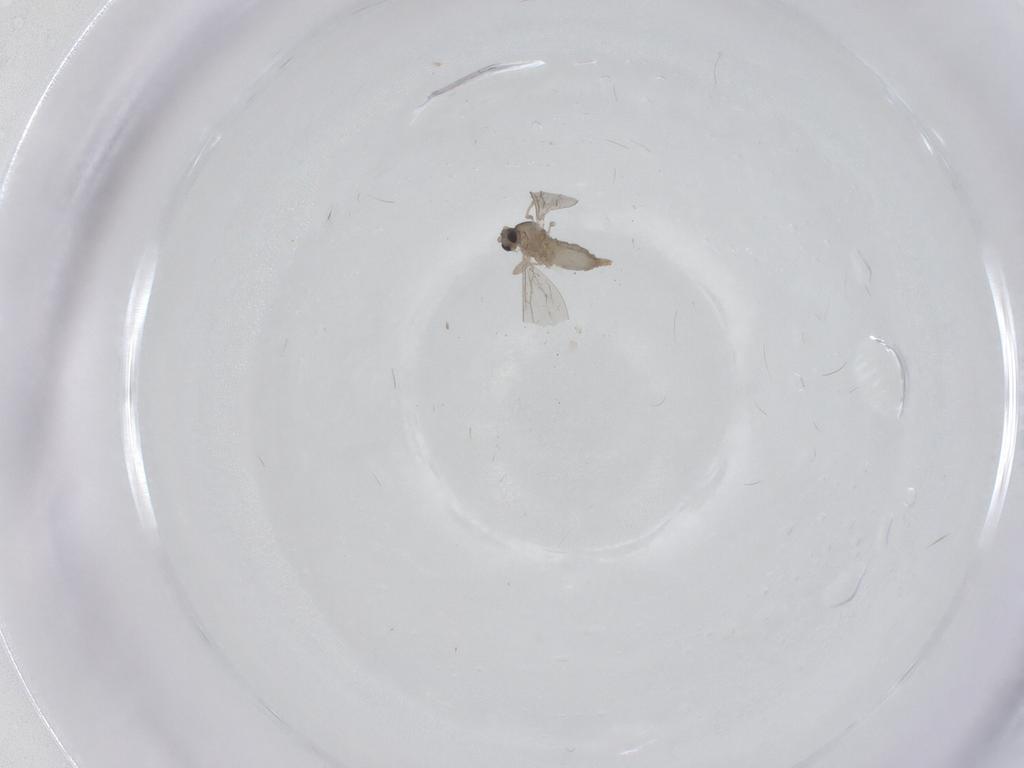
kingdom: Animalia
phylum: Arthropoda
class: Insecta
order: Diptera
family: Cecidomyiidae
